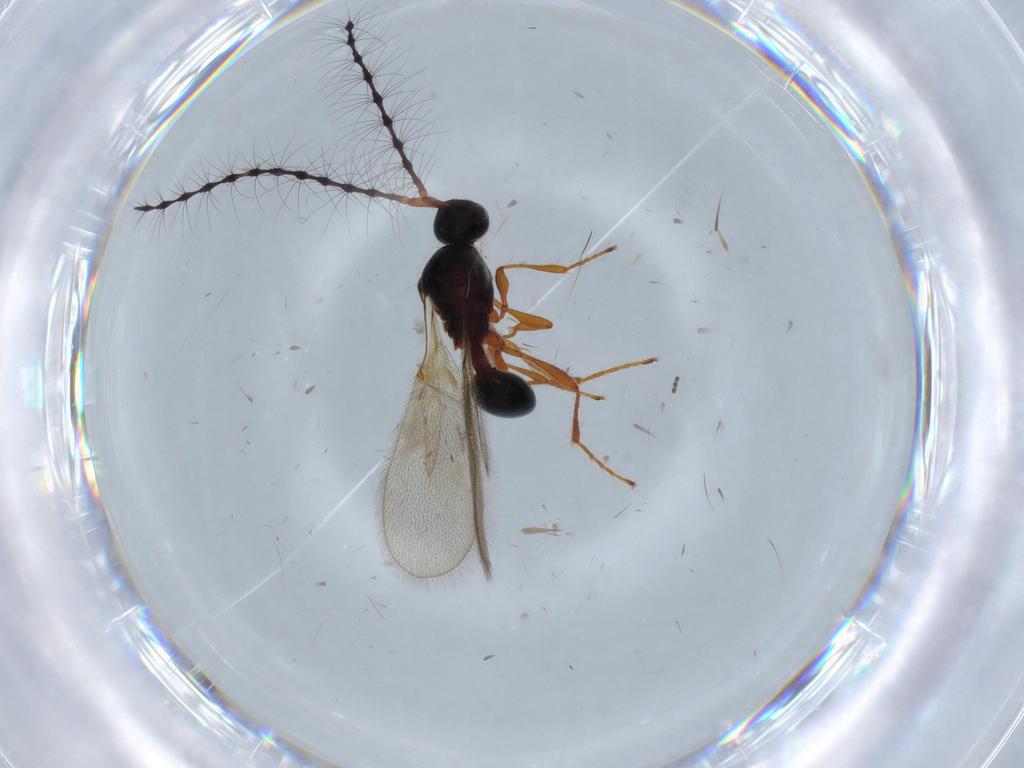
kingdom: Animalia
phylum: Arthropoda
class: Insecta
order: Hymenoptera
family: Diapriidae
